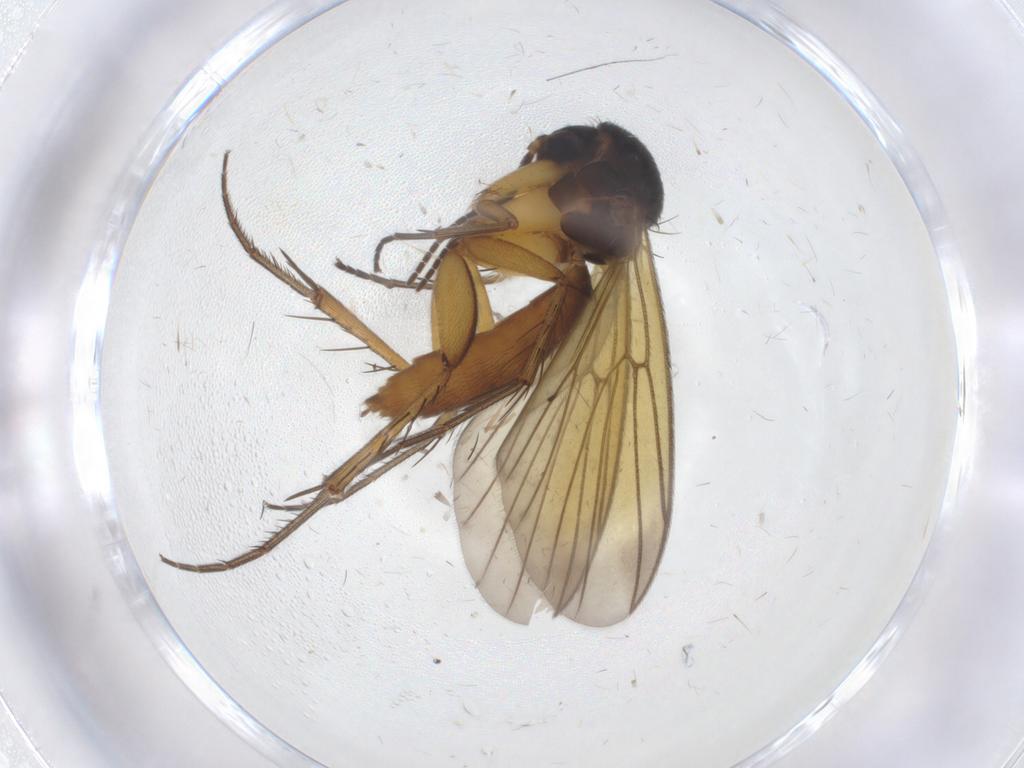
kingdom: Animalia
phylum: Arthropoda
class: Insecta
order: Diptera
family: Mycetophilidae
